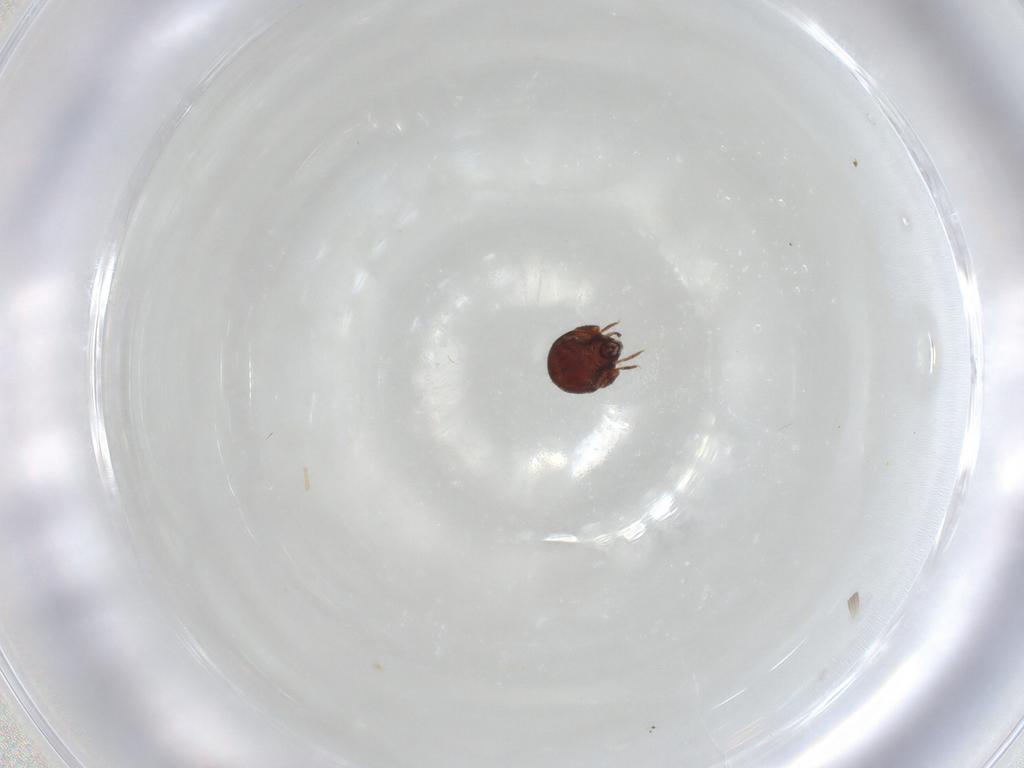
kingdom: Animalia
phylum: Arthropoda
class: Arachnida
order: Sarcoptiformes
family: Humerobatidae
